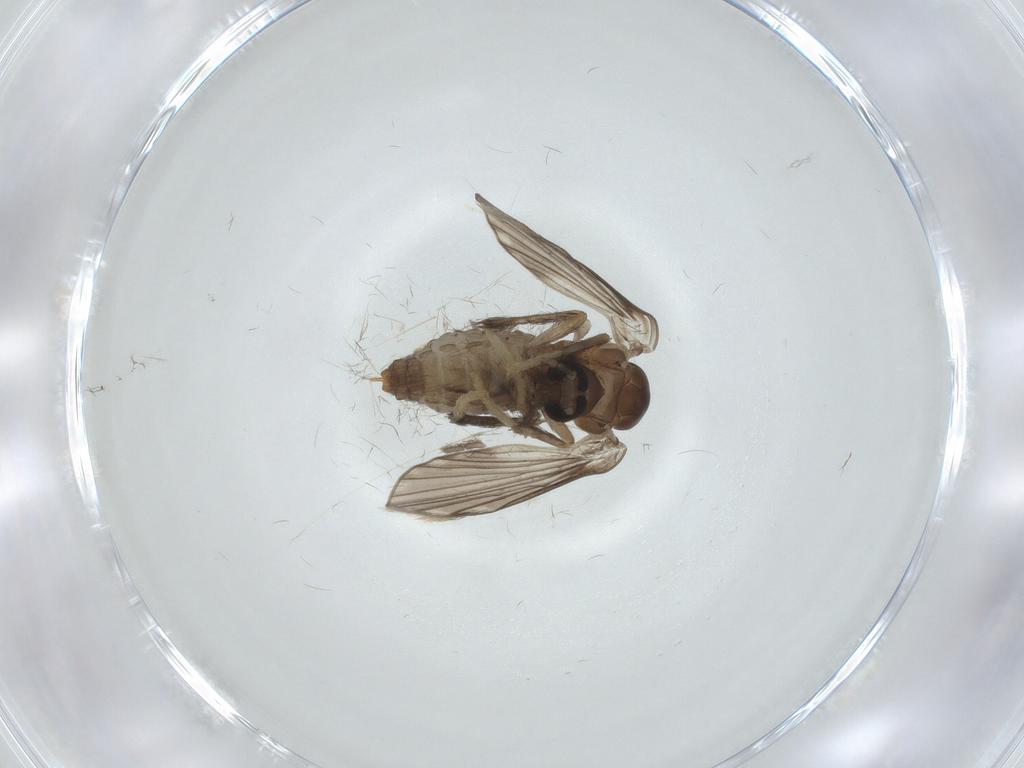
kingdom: Animalia
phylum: Arthropoda
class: Insecta
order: Diptera
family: Psychodidae
